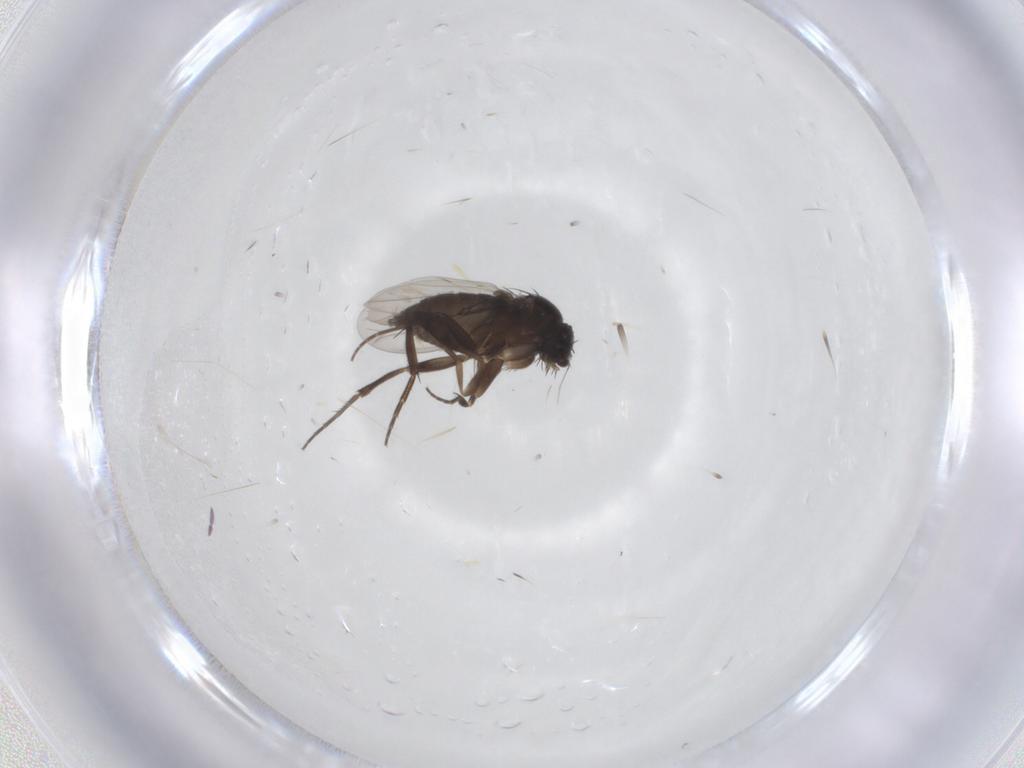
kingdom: Animalia
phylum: Arthropoda
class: Insecta
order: Diptera
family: Phoridae
